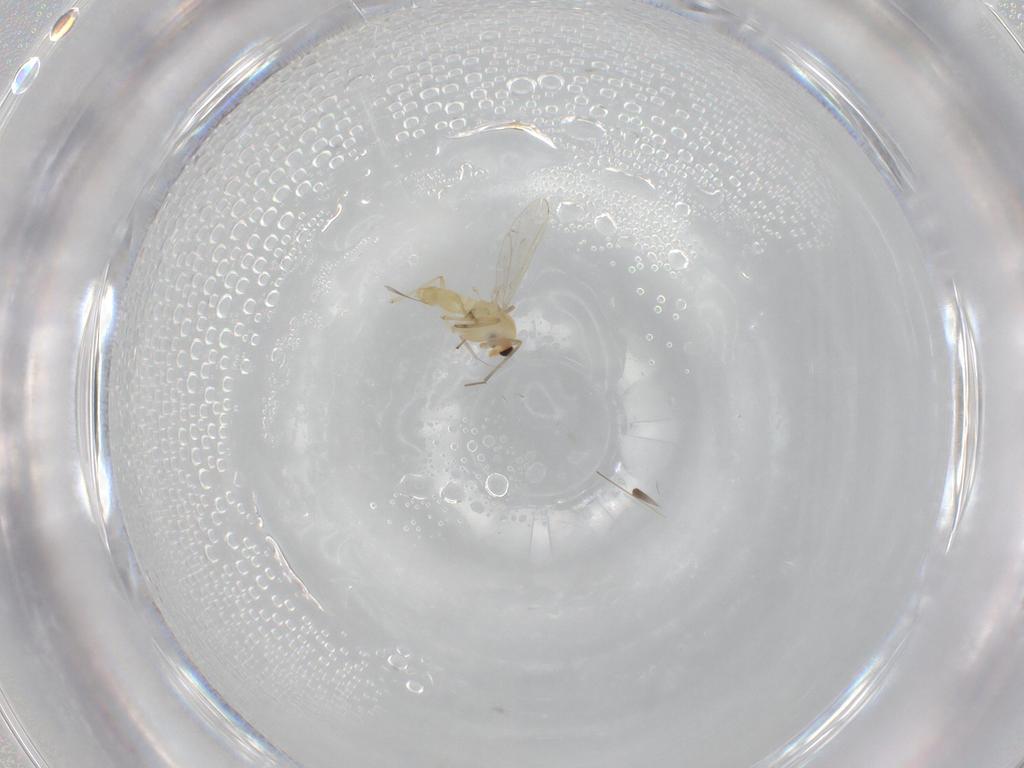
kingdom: Animalia
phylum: Arthropoda
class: Insecta
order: Diptera
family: Chironomidae
